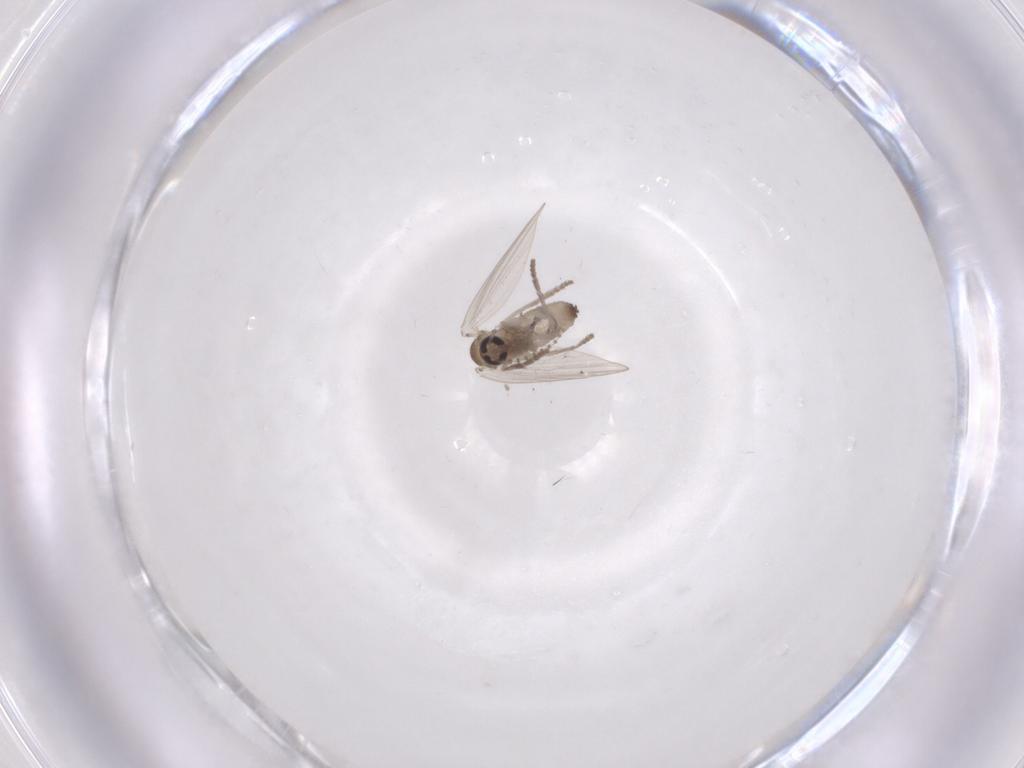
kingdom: Animalia
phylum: Arthropoda
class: Insecta
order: Diptera
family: Psychodidae
